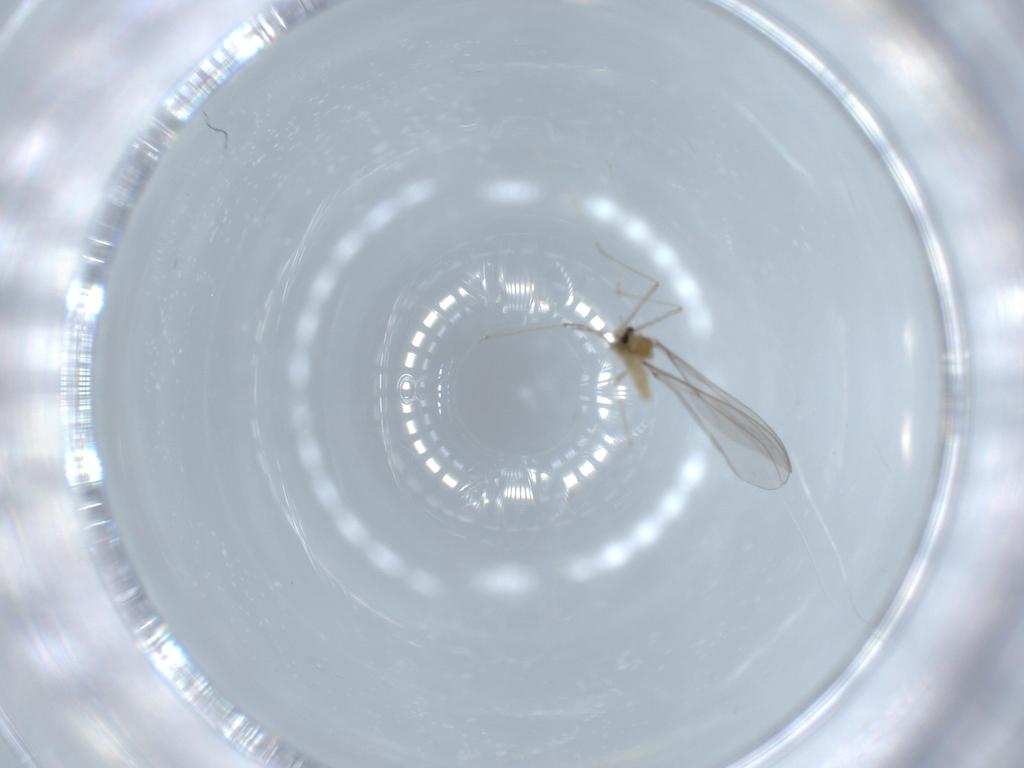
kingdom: Animalia
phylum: Arthropoda
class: Insecta
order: Diptera
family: Cecidomyiidae
